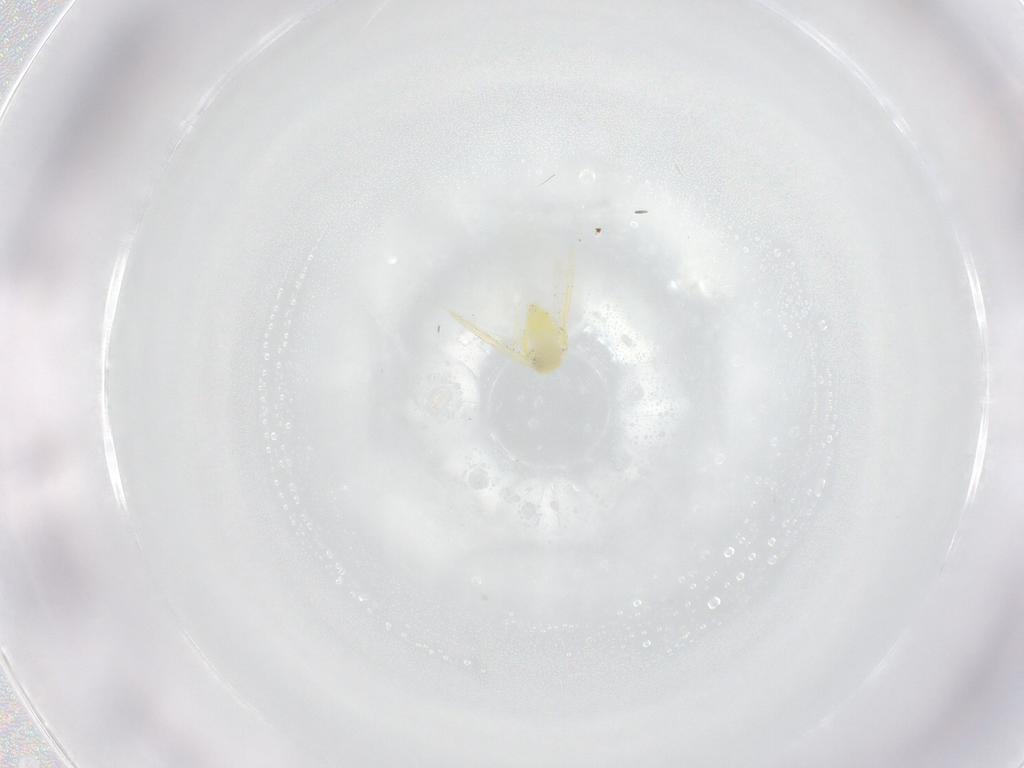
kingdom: Animalia
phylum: Arthropoda
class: Insecta
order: Hemiptera
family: Aleyrodidae
